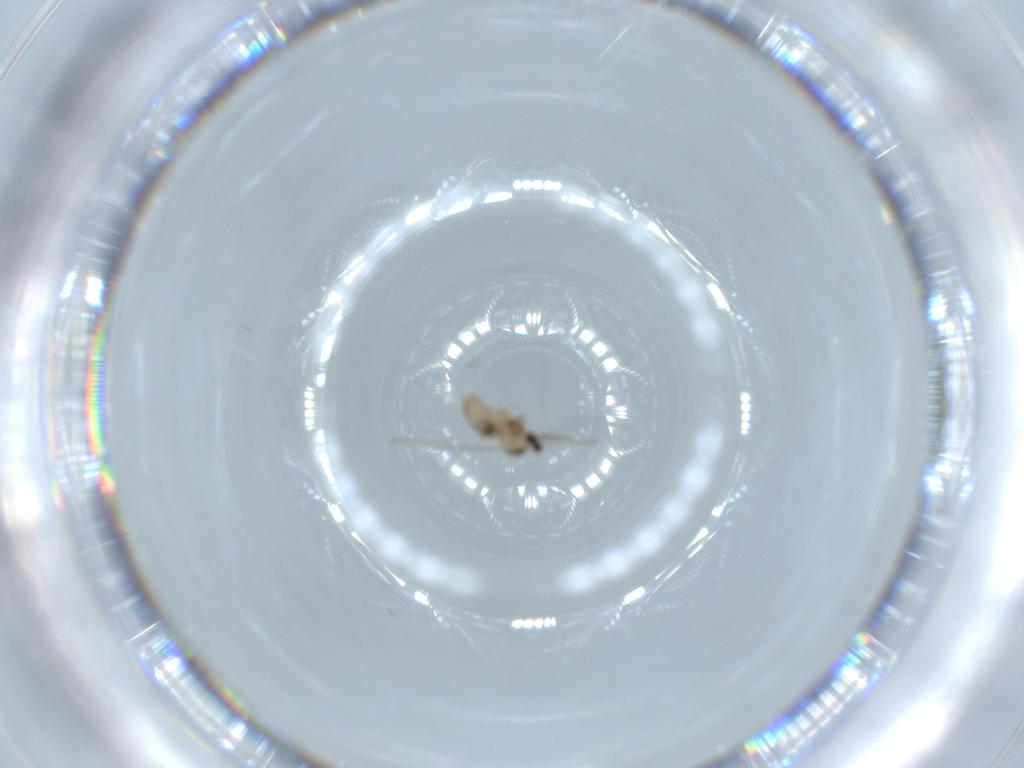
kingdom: Animalia
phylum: Arthropoda
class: Insecta
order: Diptera
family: Cecidomyiidae
